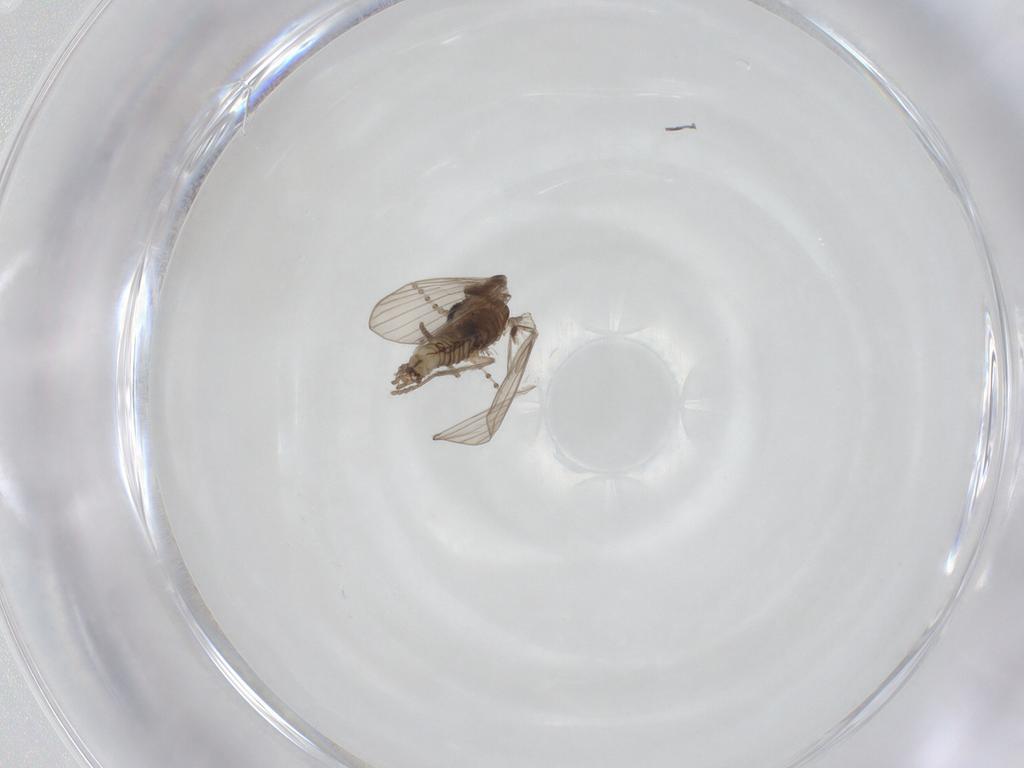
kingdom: Animalia
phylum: Arthropoda
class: Insecta
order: Diptera
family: Psychodidae
